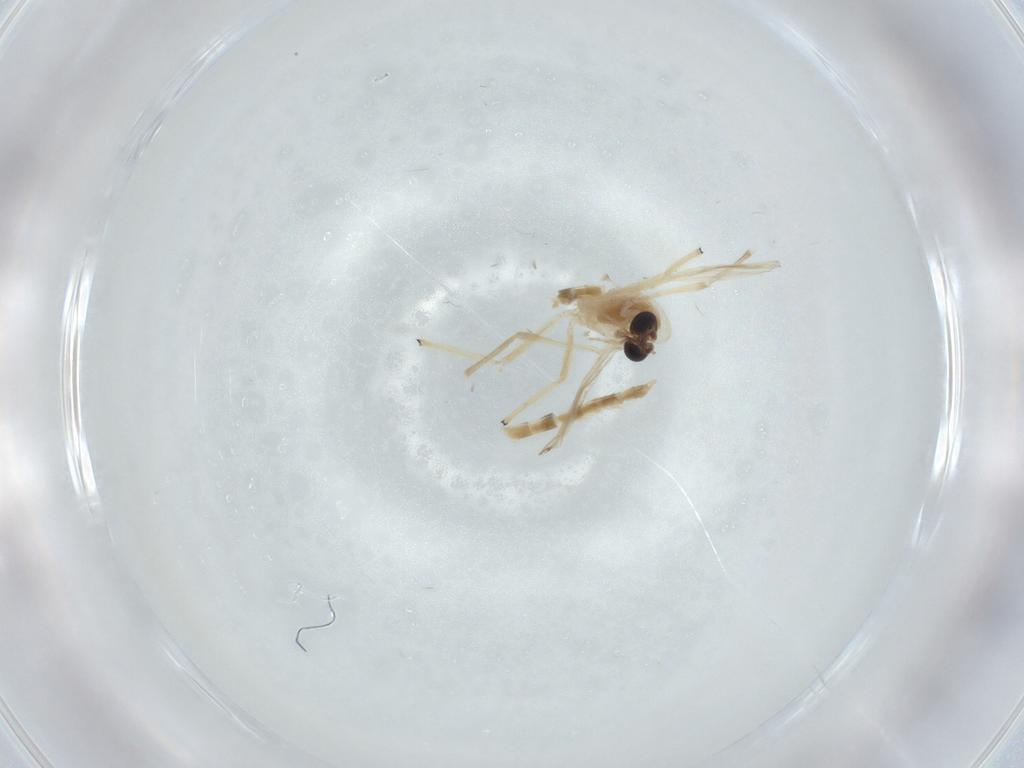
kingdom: Animalia
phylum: Arthropoda
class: Insecta
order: Diptera
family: Chironomidae
